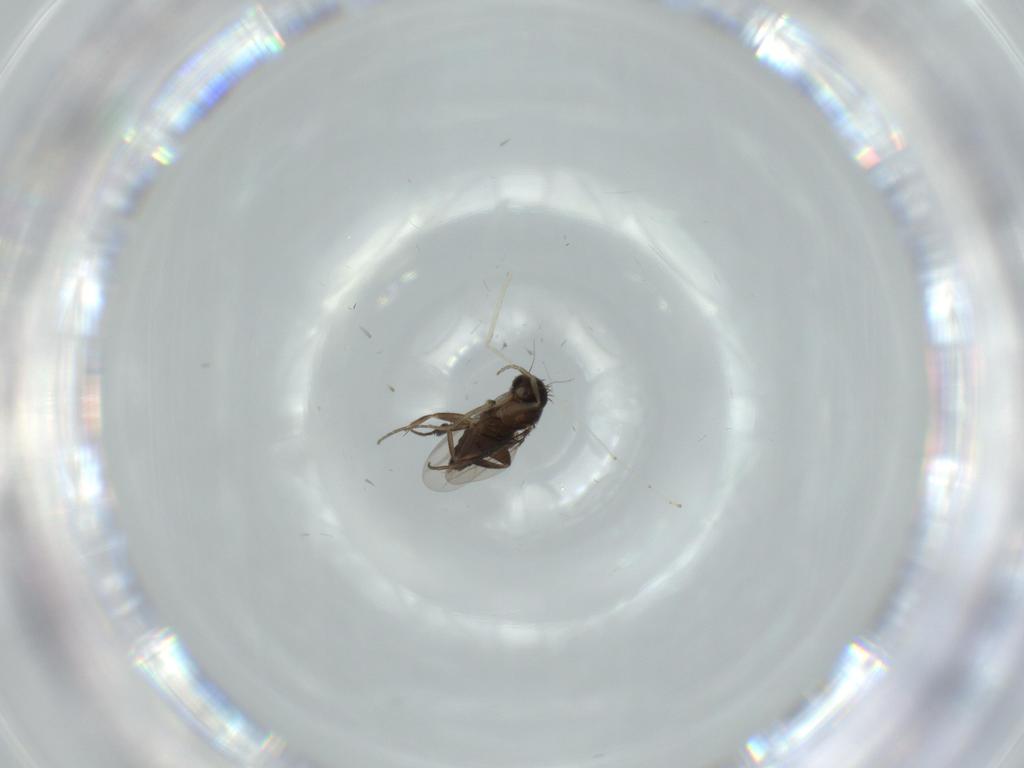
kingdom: Animalia
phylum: Arthropoda
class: Insecta
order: Diptera
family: Phoridae
